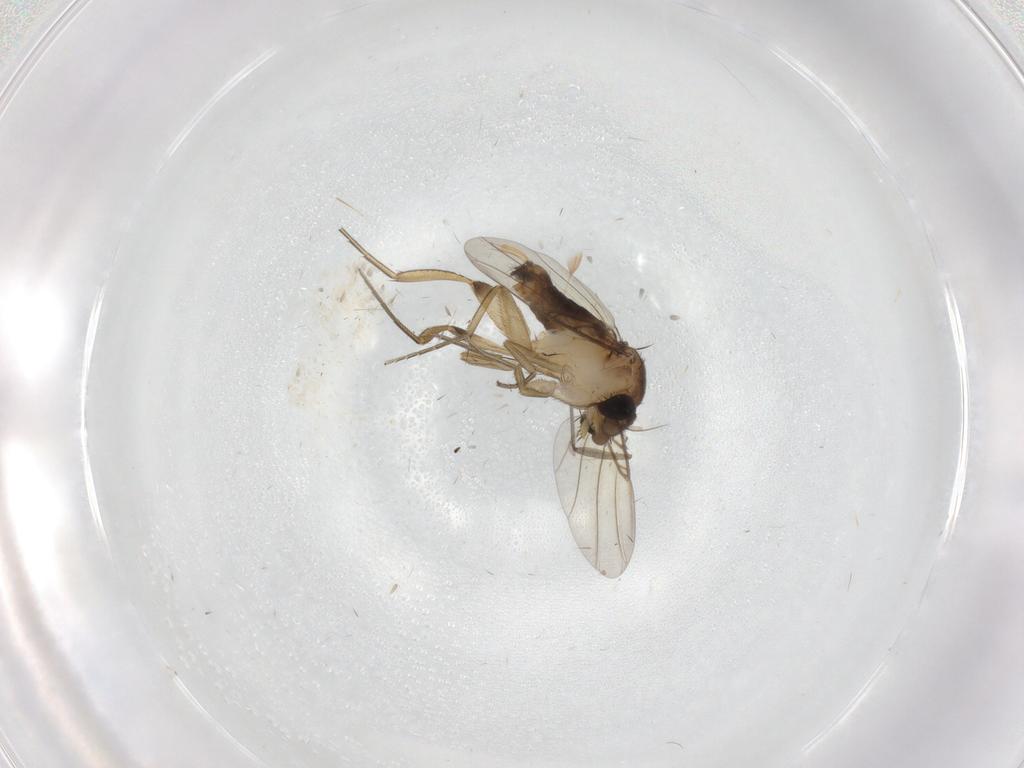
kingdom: Animalia
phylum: Arthropoda
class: Insecta
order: Diptera
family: Phoridae
